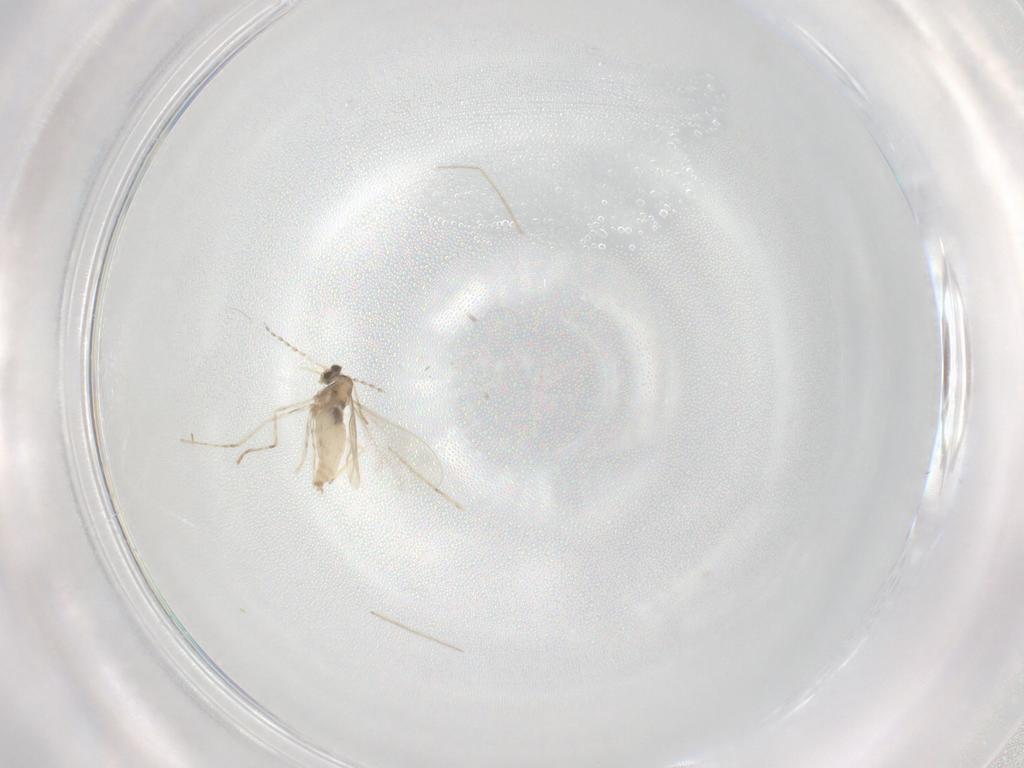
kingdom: Animalia
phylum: Arthropoda
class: Insecta
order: Diptera
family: Cecidomyiidae
